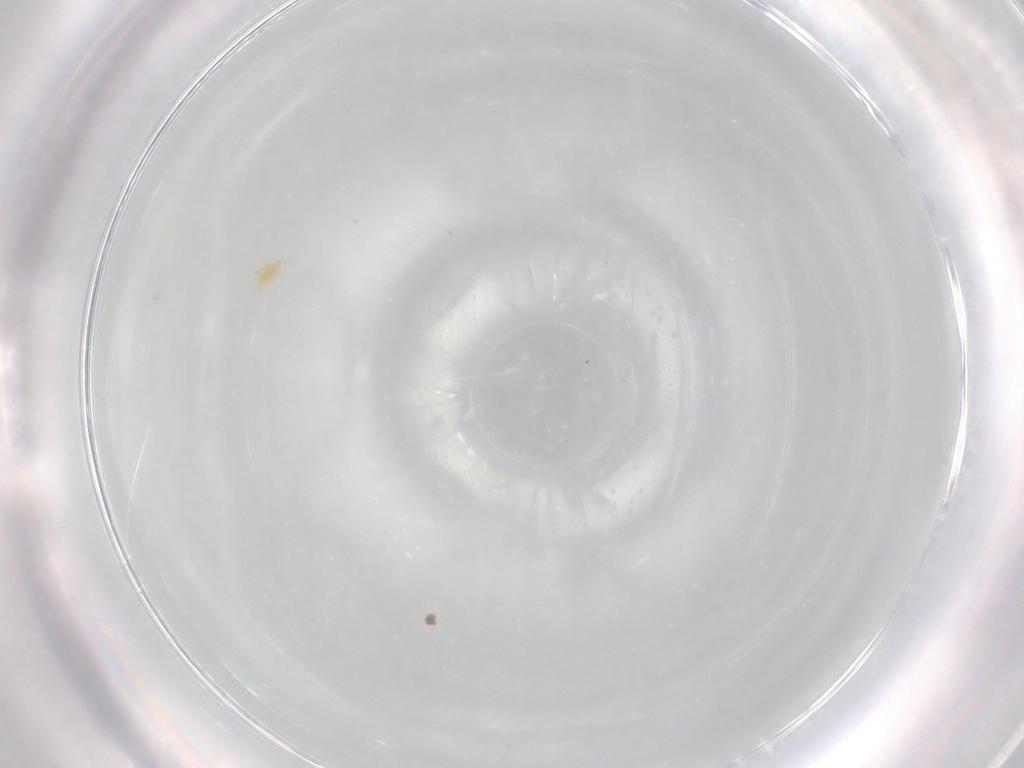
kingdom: Animalia
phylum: Arthropoda
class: Arachnida
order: Trombidiformes
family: Tetranychidae
